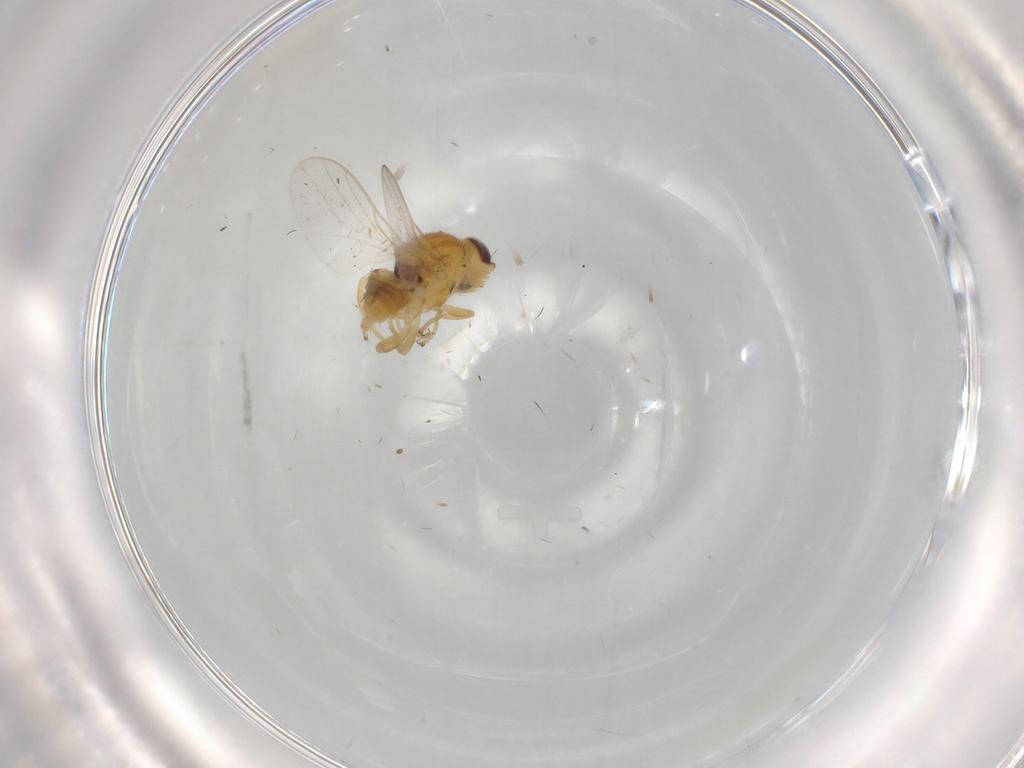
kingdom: Animalia
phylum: Arthropoda
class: Insecta
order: Diptera
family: Chloropidae
